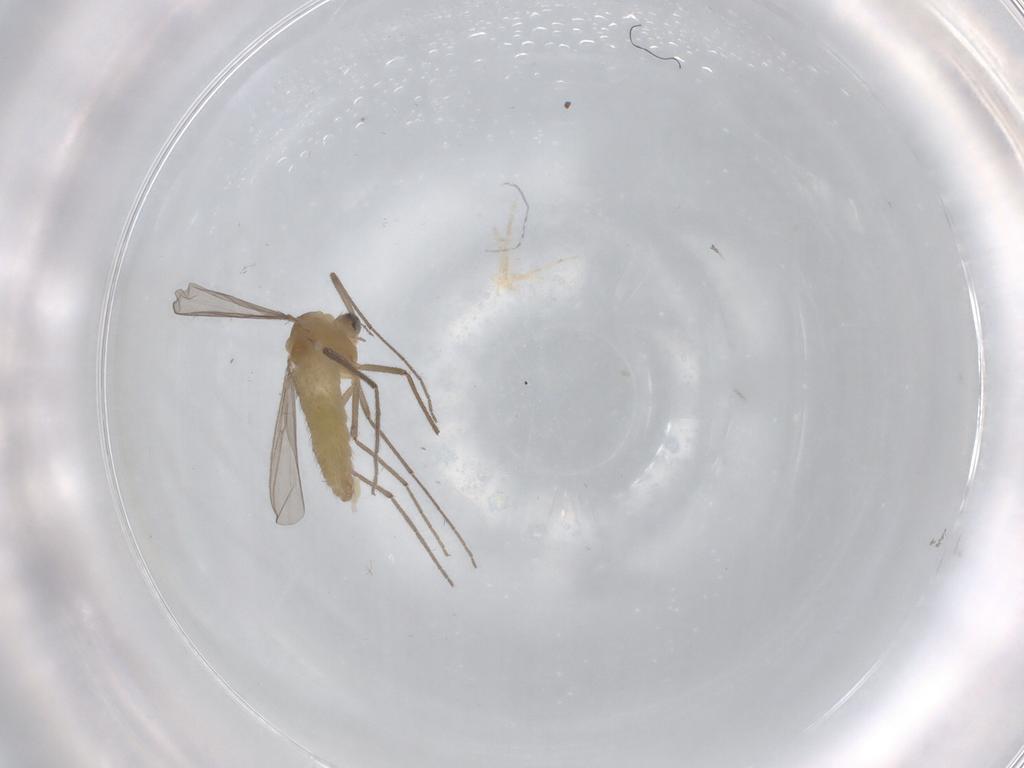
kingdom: Animalia
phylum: Arthropoda
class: Insecta
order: Diptera
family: Chironomidae
